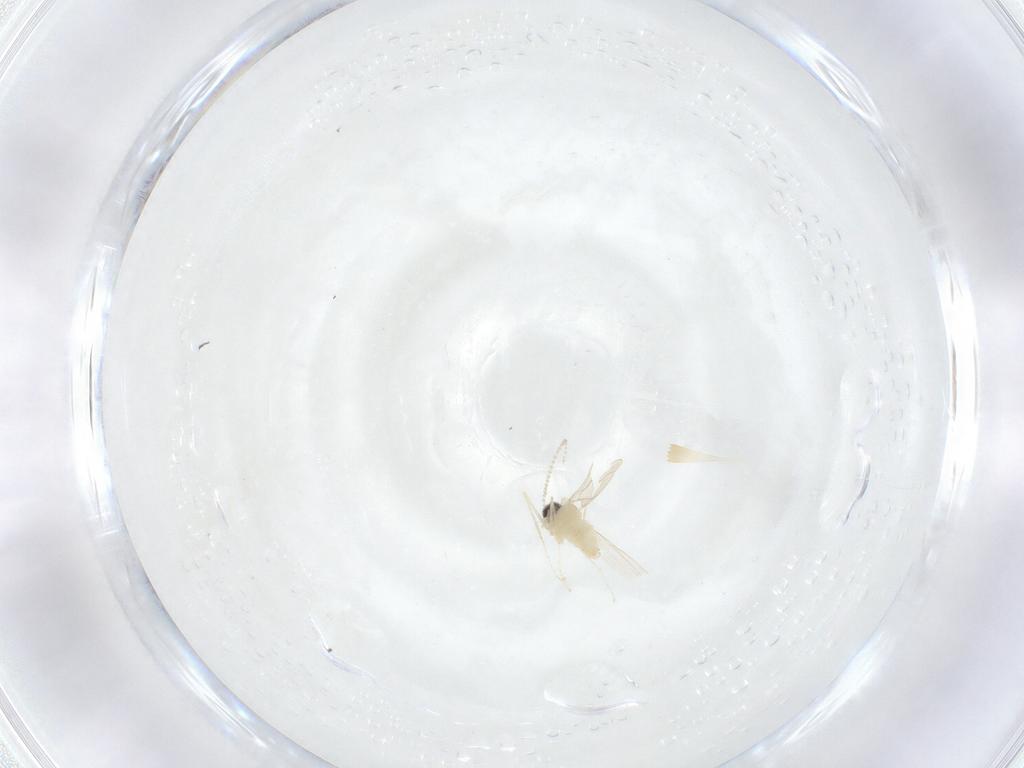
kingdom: Animalia
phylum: Arthropoda
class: Insecta
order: Diptera
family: Cecidomyiidae
